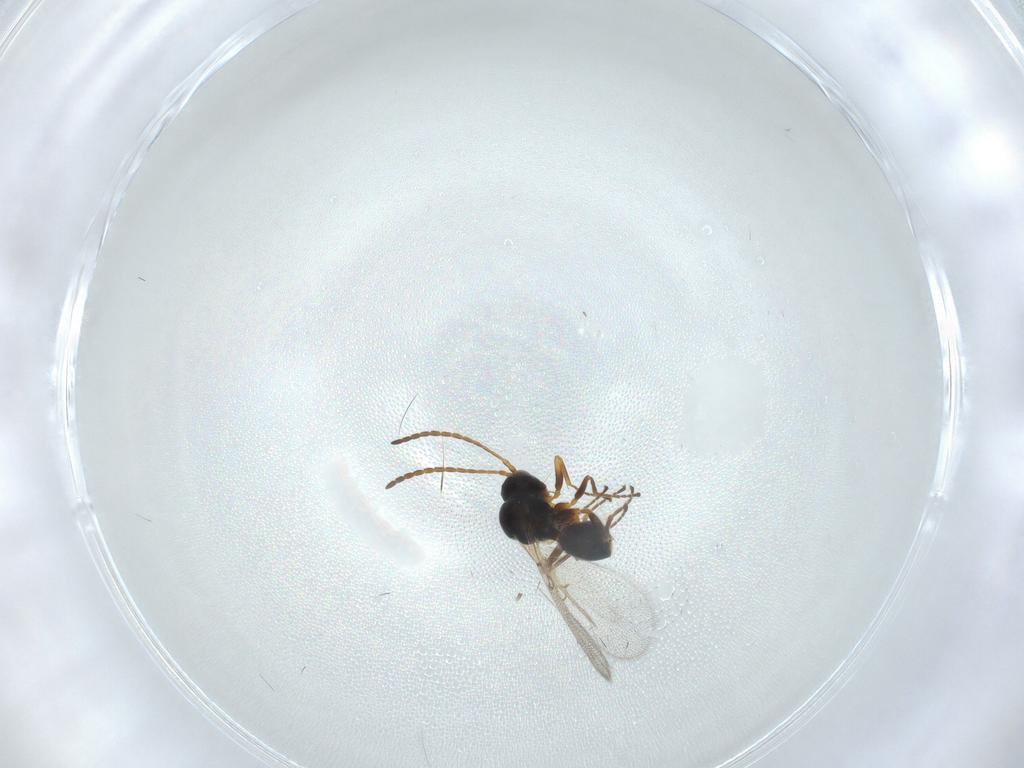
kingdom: Animalia
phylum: Arthropoda
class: Insecta
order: Hymenoptera
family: Figitidae
